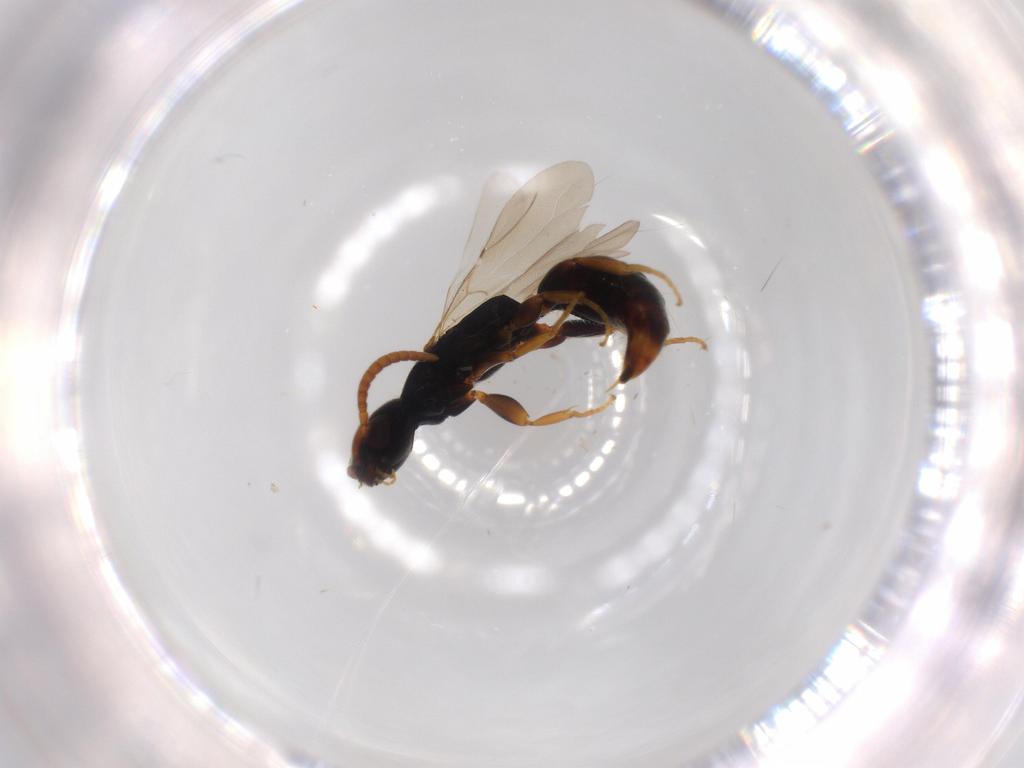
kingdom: Animalia
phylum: Arthropoda
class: Insecta
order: Hymenoptera
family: Bethylidae
